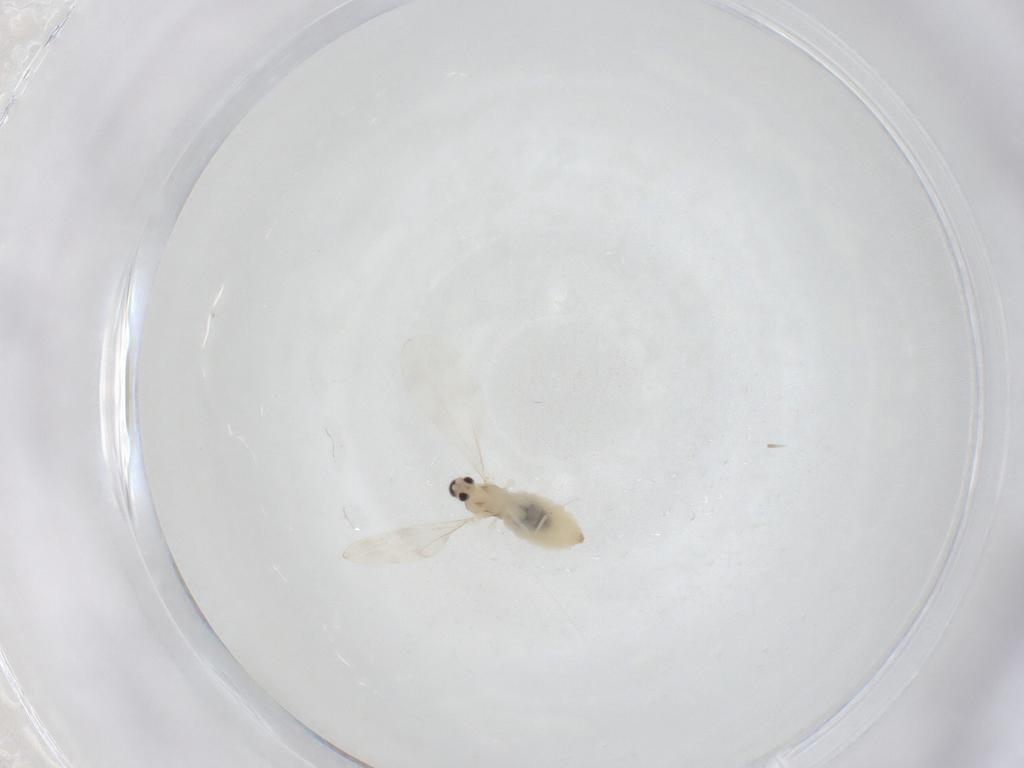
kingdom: Animalia
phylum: Arthropoda
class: Insecta
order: Diptera
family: Cecidomyiidae
